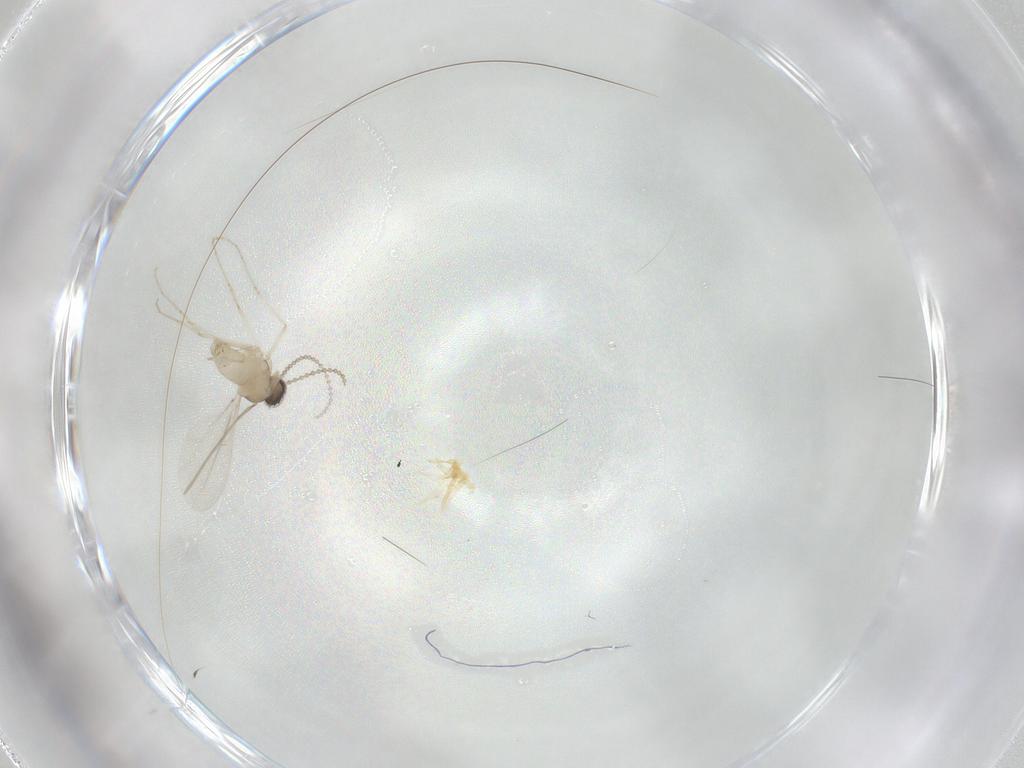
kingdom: Animalia
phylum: Arthropoda
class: Insecta
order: Diptera
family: Cecidomyiidae
